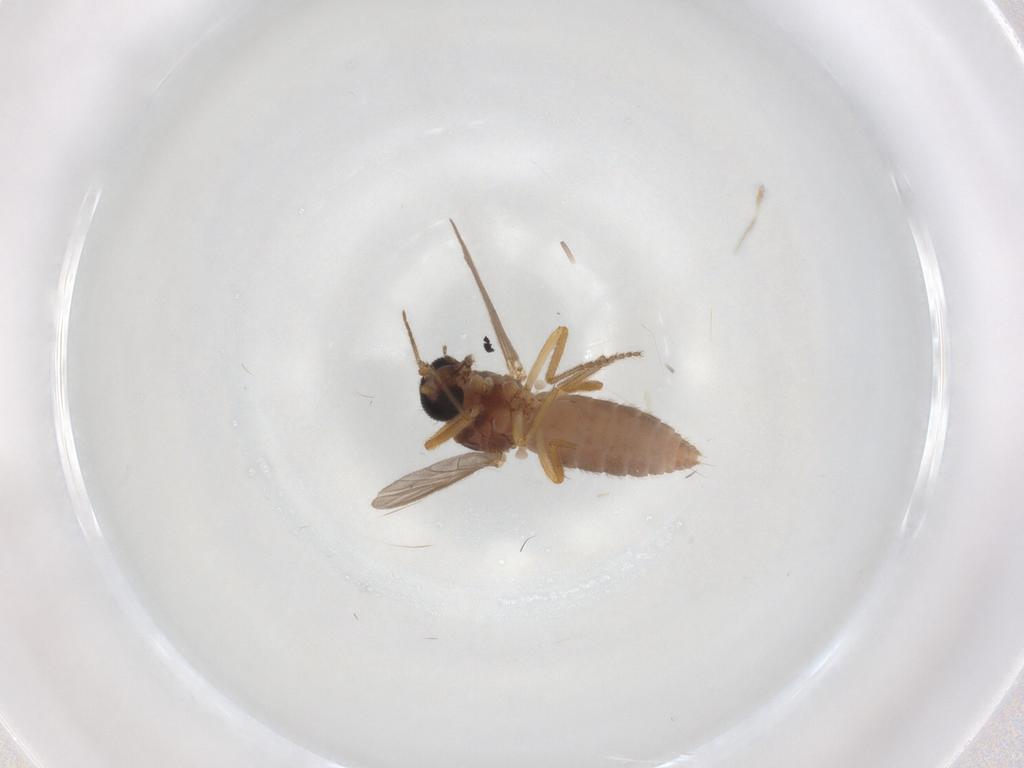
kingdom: Animalia
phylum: Arthropoda
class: Insecta
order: Diptera
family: Ceratopogonidae
